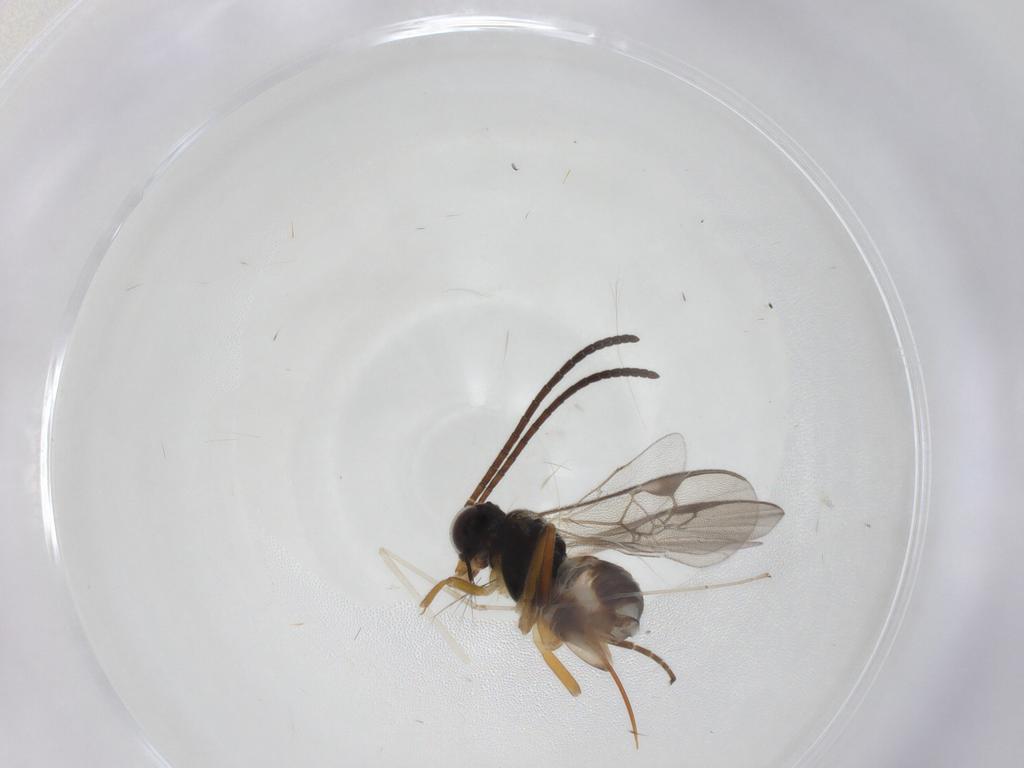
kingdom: Animalia
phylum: Arthropoda
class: Insecta
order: Hymenoptera
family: Braconidae
